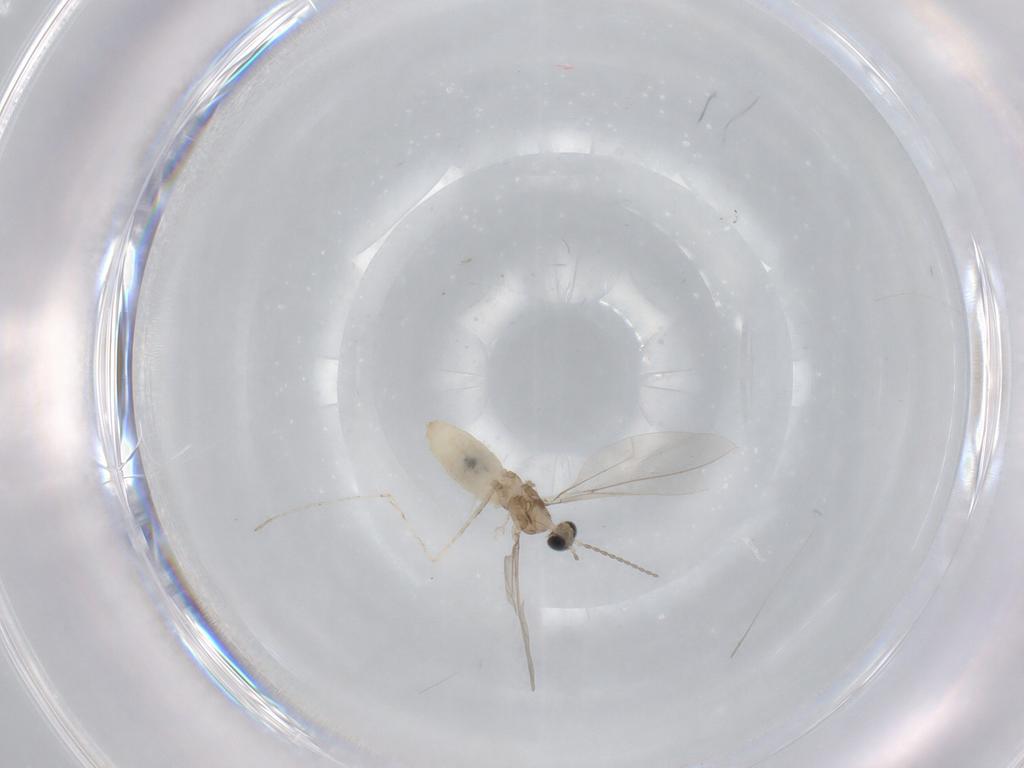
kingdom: Animalia
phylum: Arthropoda
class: Insecta
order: Diptera
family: Cecidomyiidae
